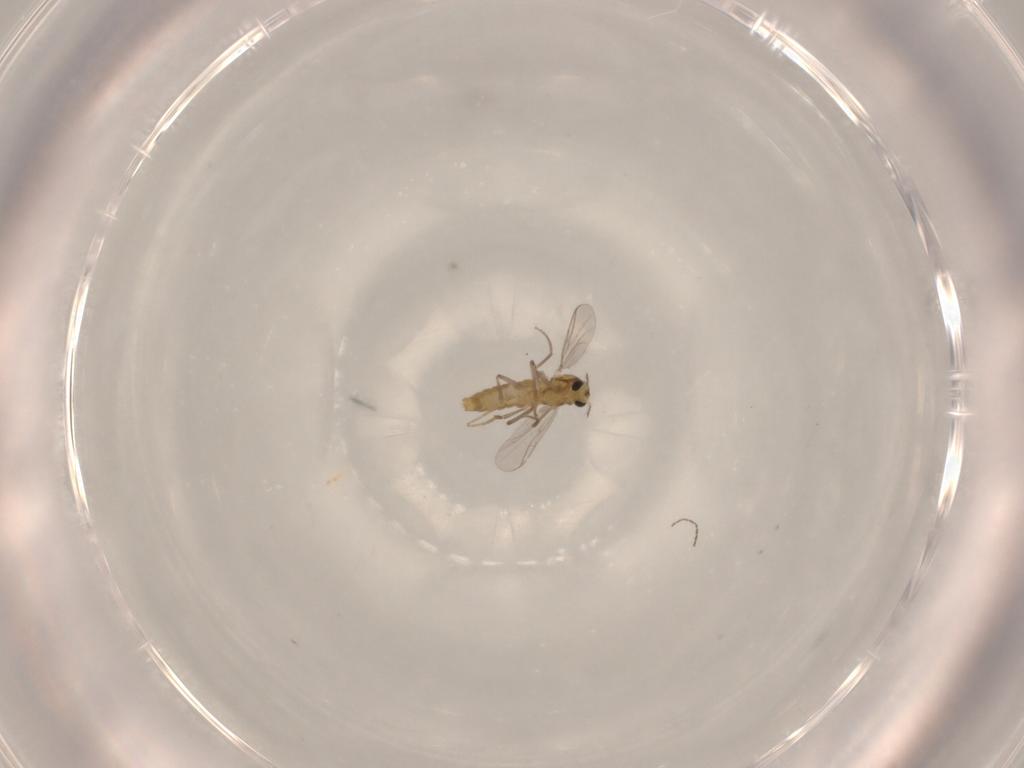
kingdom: Animalia
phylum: Arthropoda
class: Insecta
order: Diptera
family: Chironomidae
